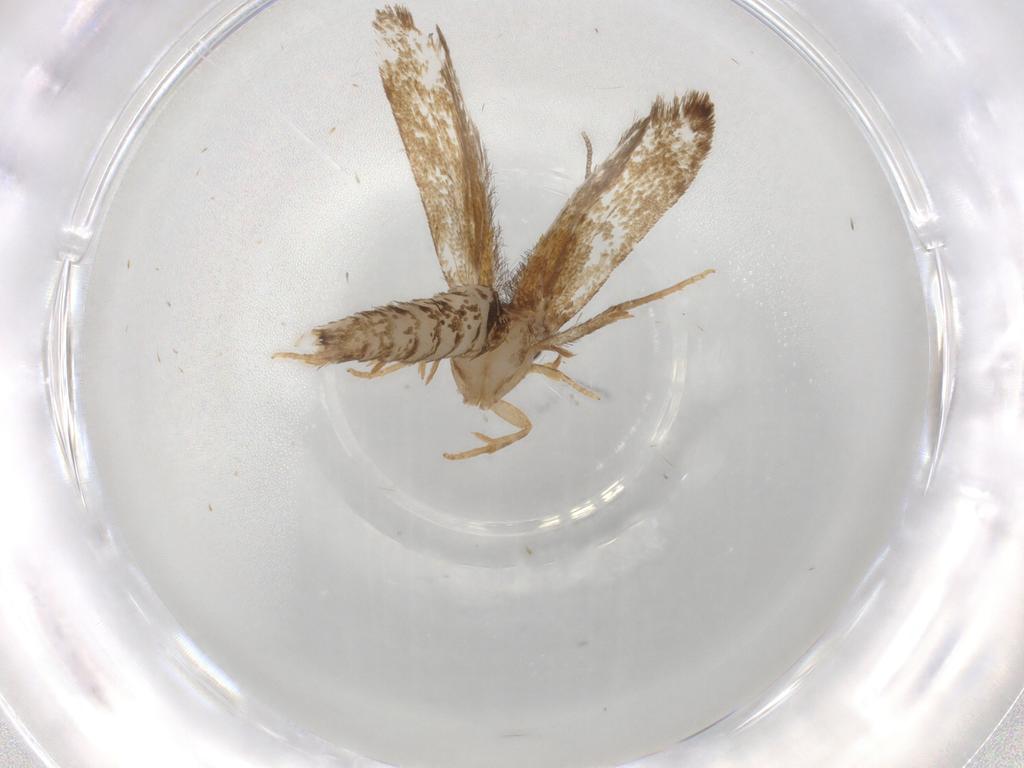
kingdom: Animalia
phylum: Arthropoda
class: Insecta
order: Lepidoptera
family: Tineidae
